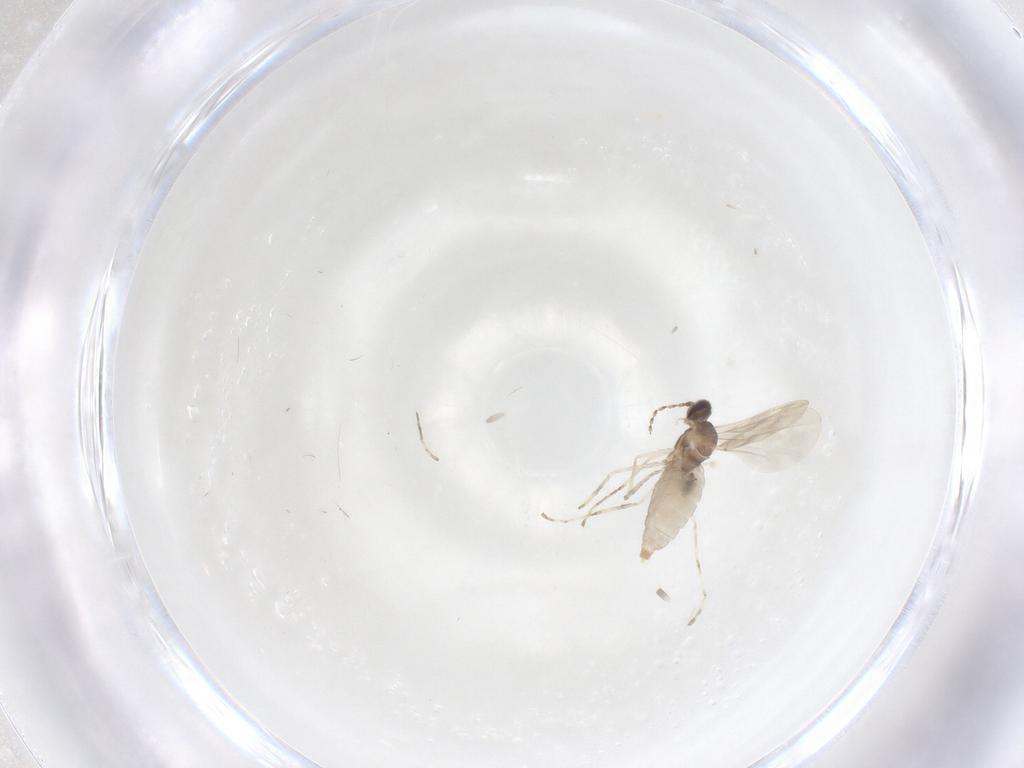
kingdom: Animalia
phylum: Arthropoda
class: Insecta
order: Diptera
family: Cecidomyiidae
